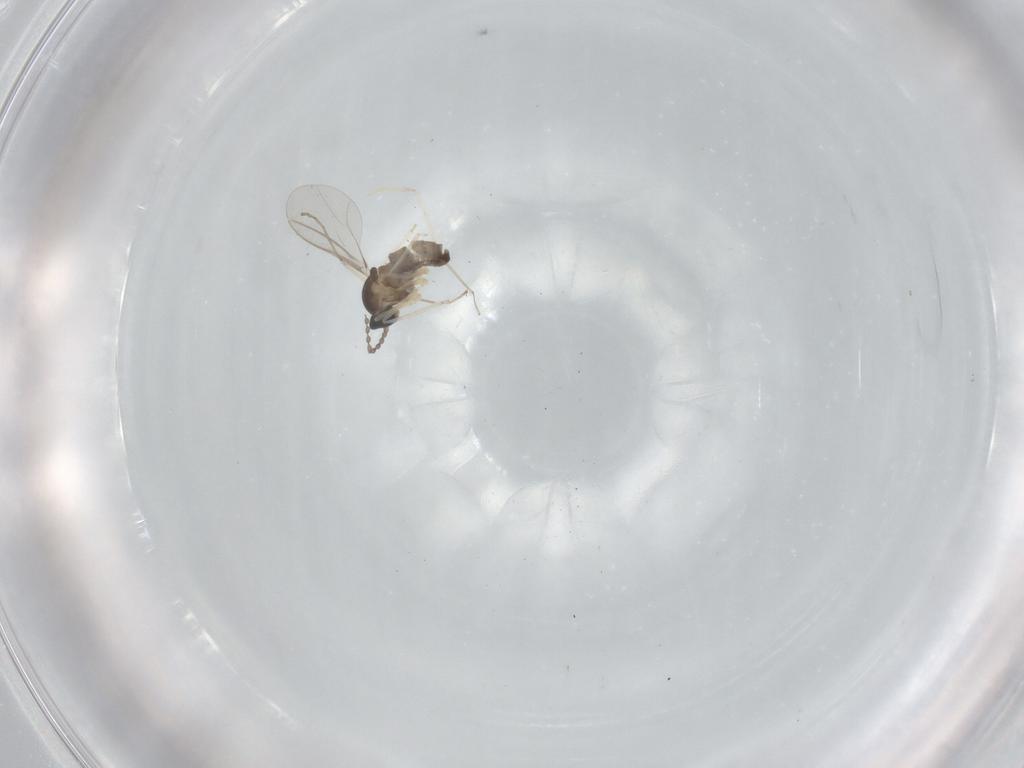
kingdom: Animalia
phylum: Arthropoda
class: Insecta
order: Diptera
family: Cecidomyiidae
